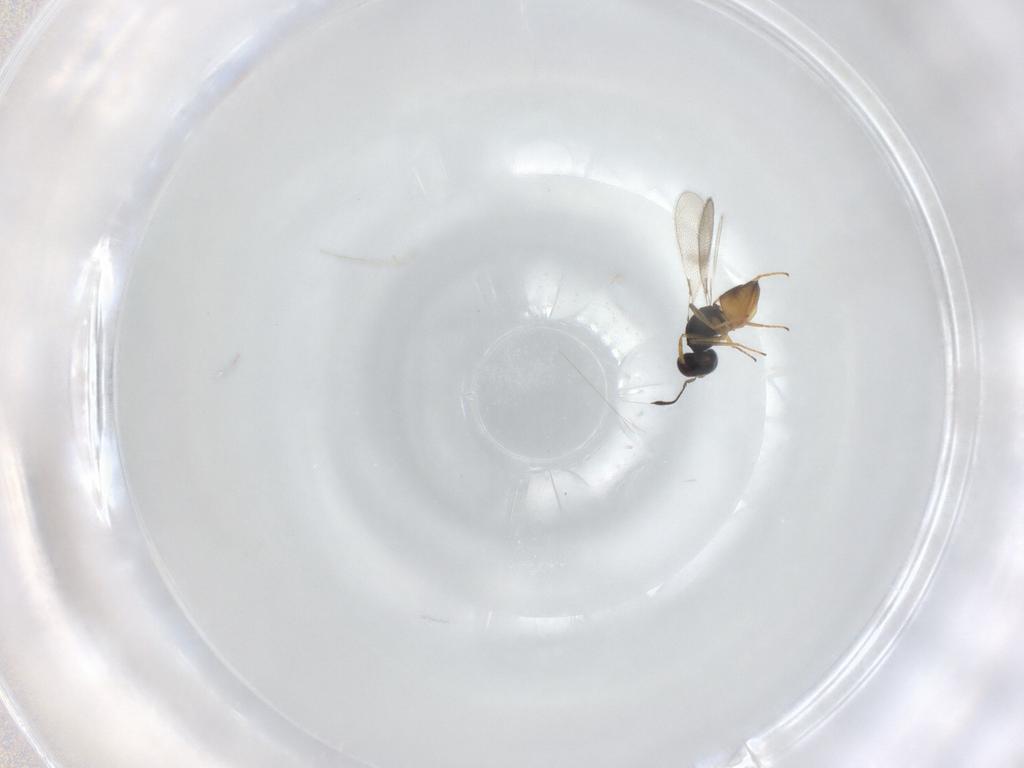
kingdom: Animalia
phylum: Arthropoda
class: Insecta
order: Hymenoptera
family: Mymaridae
